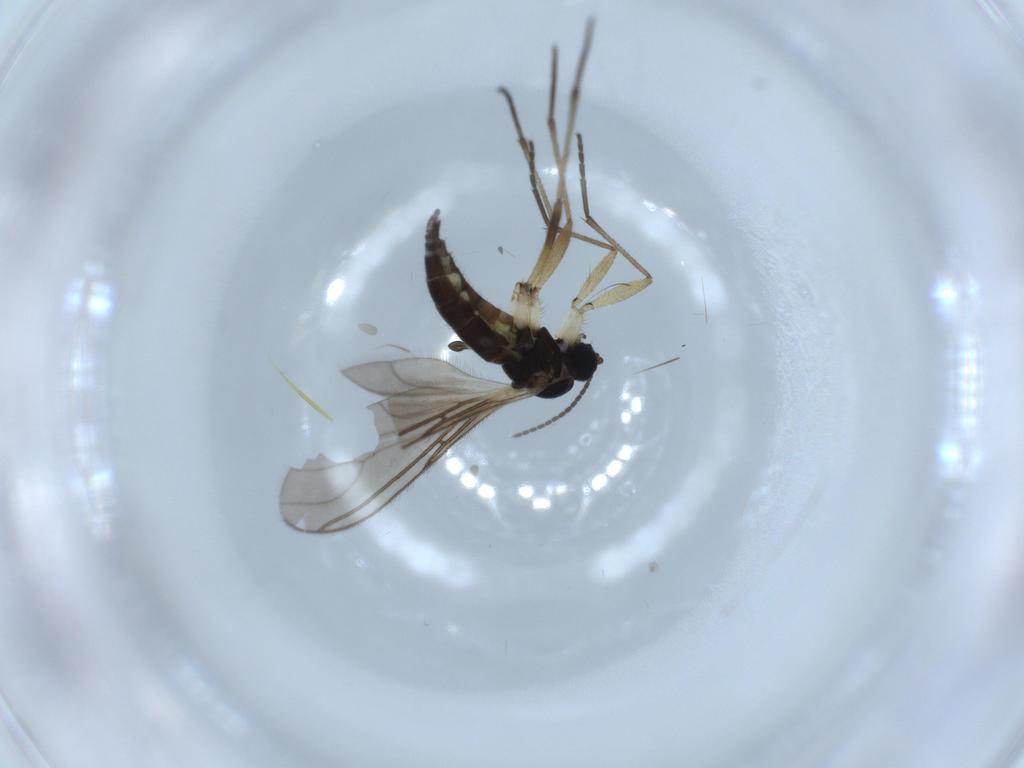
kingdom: Animalia
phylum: Arthropoda
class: Insecta
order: Diptera
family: Sciaridae
